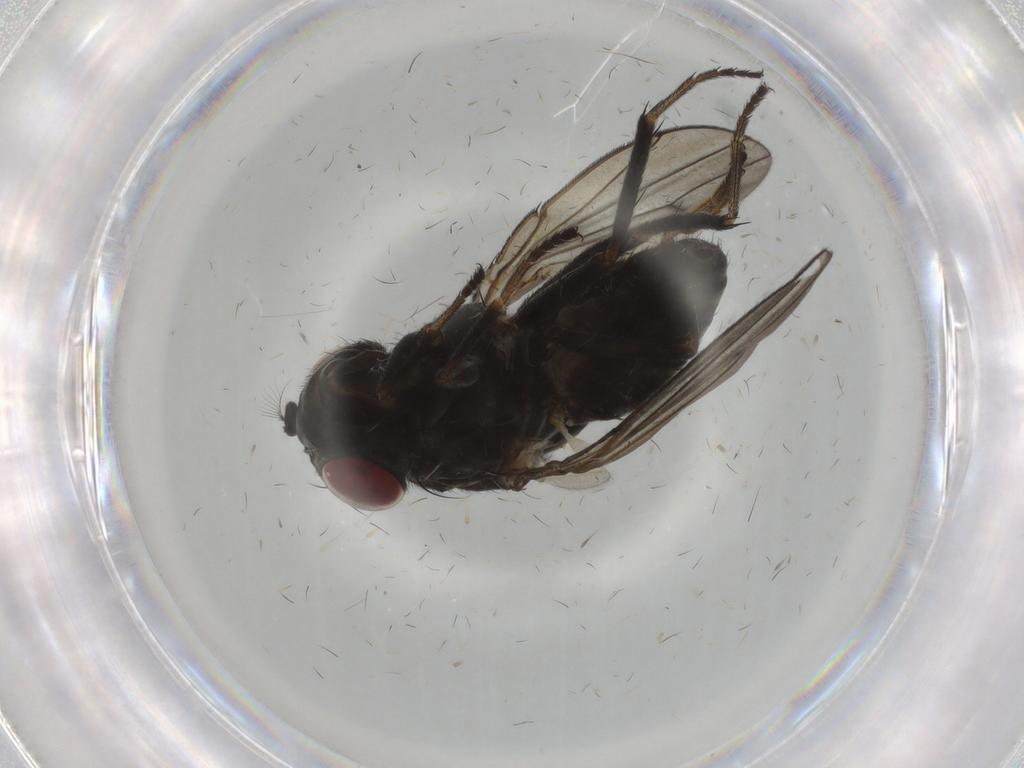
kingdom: Animalia
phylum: Arthropoda
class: Insecta
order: Diptera
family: Ephydridae
